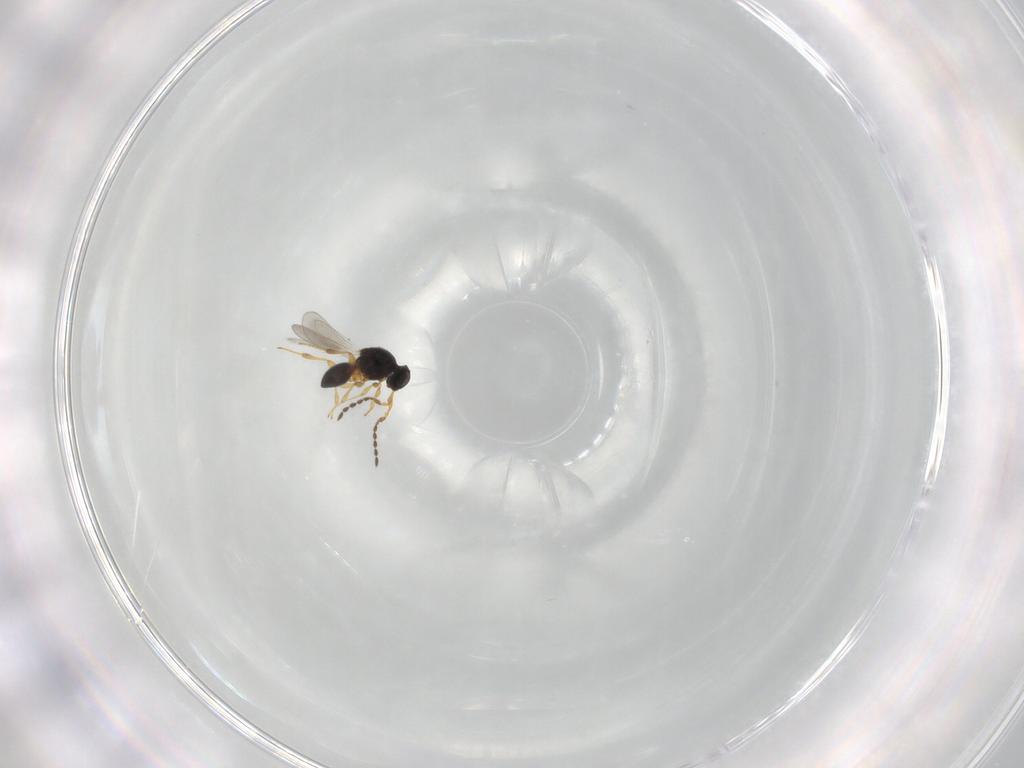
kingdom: Animalia
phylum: Arthropoda
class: Insecta
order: Hymenoptera
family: Platygastridae
